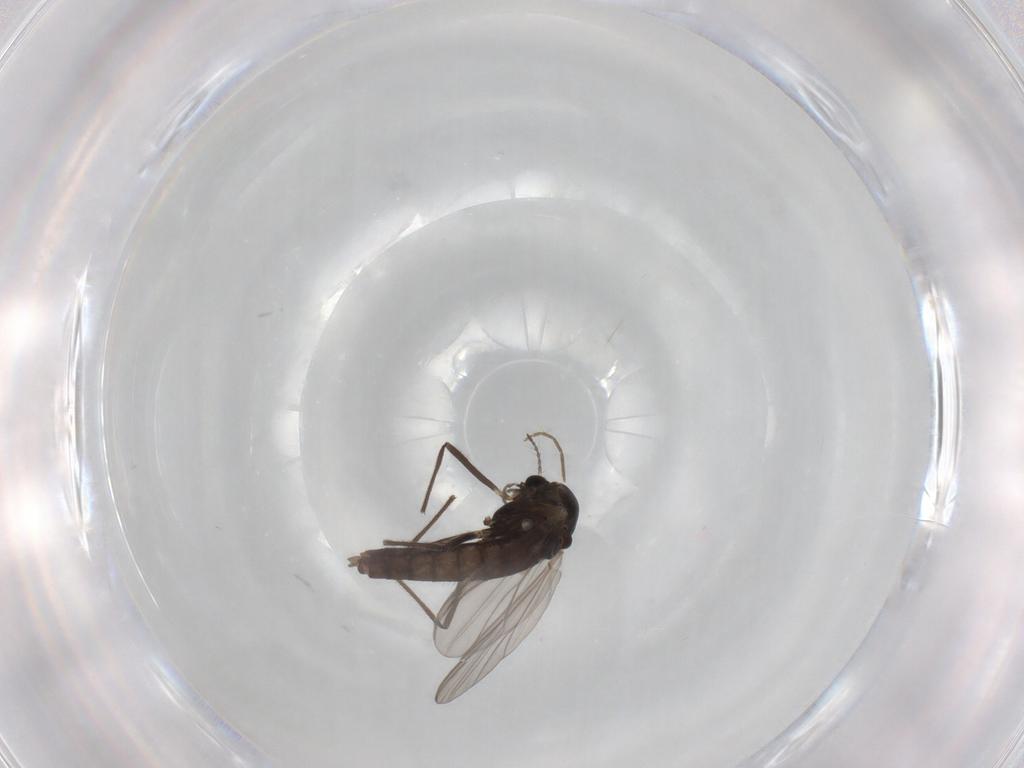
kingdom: Animalia
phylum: Arthropoda
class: Insecta
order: Diptera
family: Chironomidae
